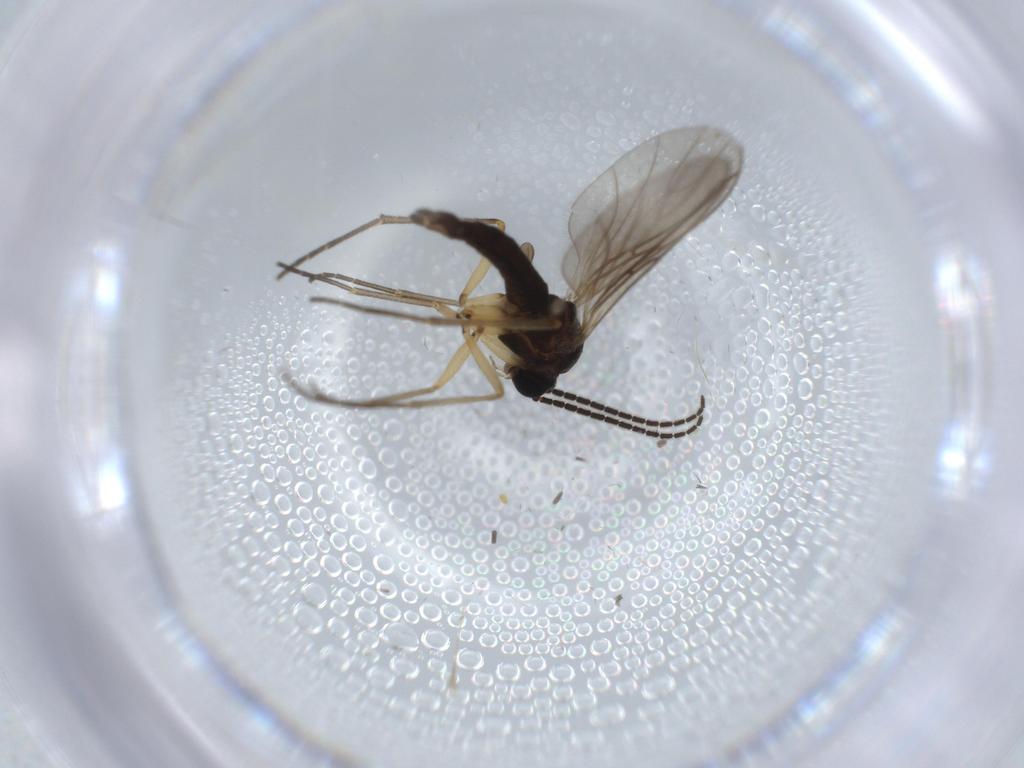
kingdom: Animalia
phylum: Arthropoda
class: Insecta
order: Diptera
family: Sciaridae
